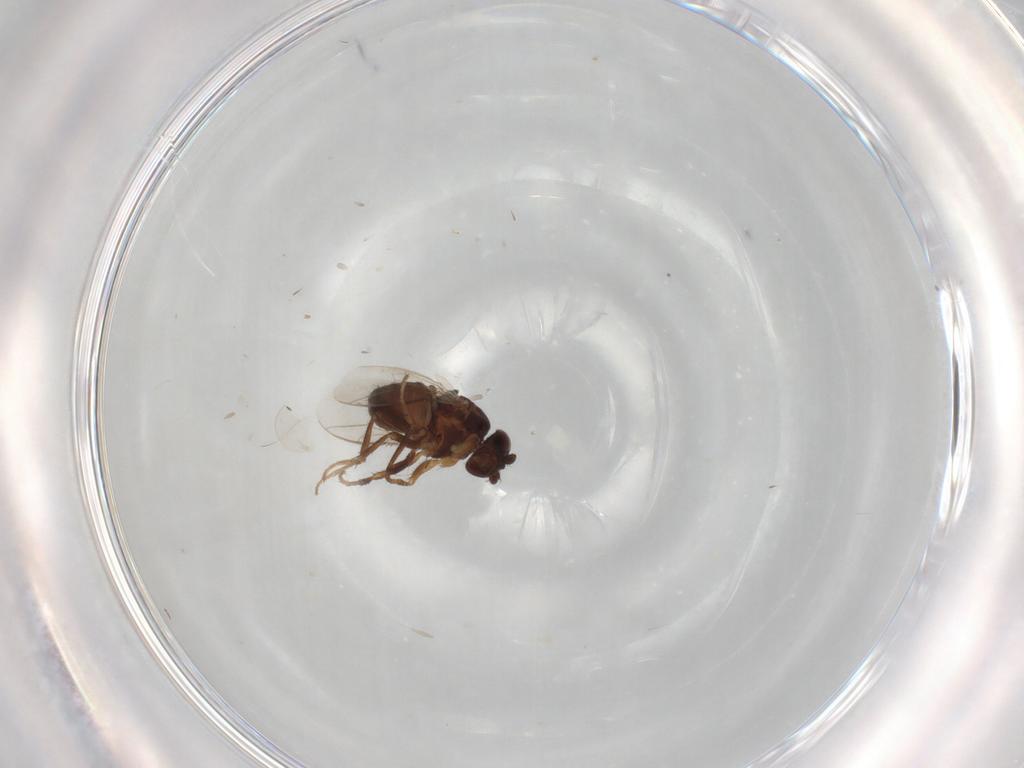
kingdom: Animalia
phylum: Arthropoda
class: Insecta
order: Diptera
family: Sphaeroceridae
